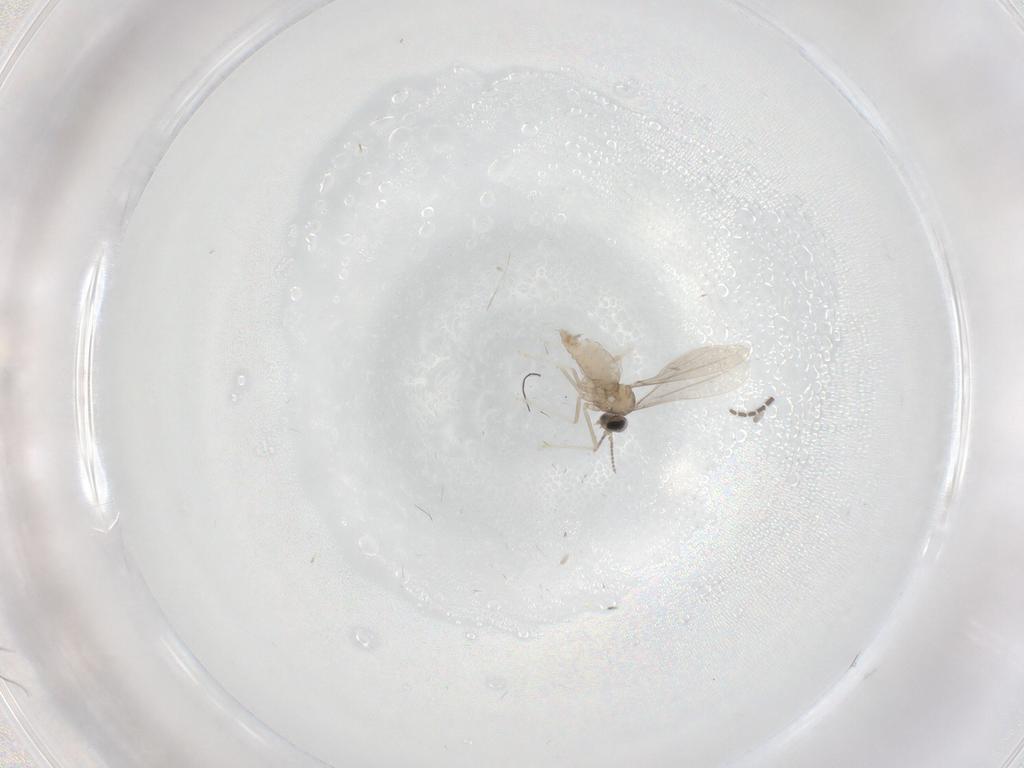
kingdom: Animalia
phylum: Arthropoda
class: Insecta
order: Diptera
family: Cecidomyiidae
